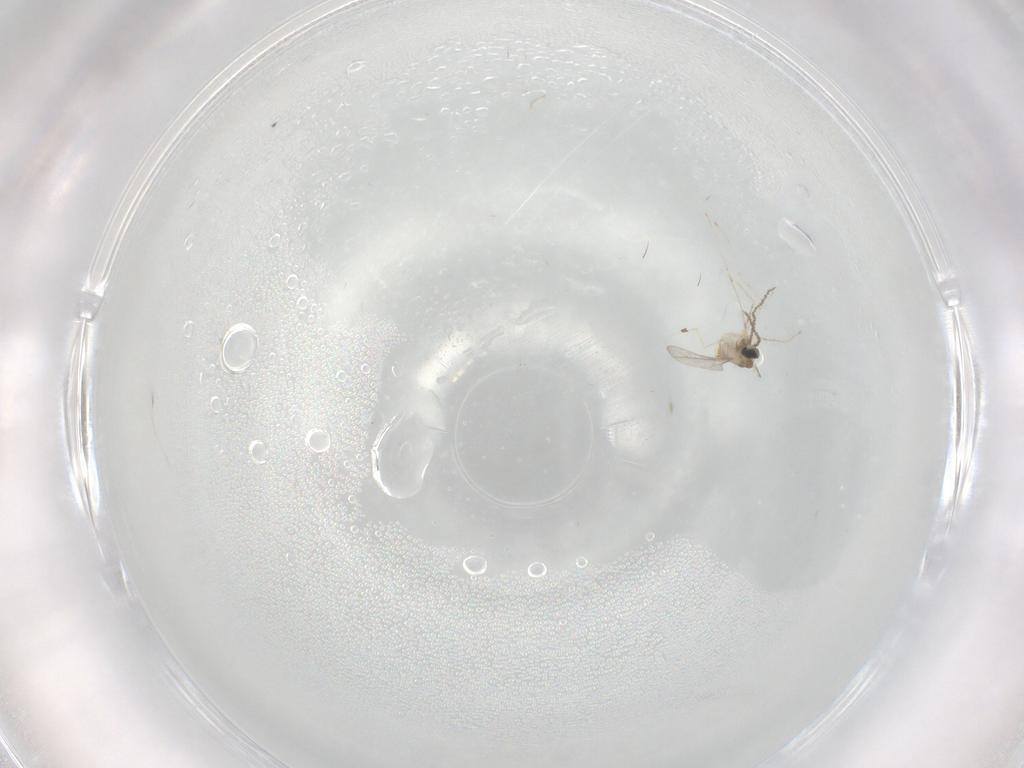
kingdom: Animalia
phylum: Arthropoda
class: Insecta
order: Diptera
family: Cecidomyiidae
